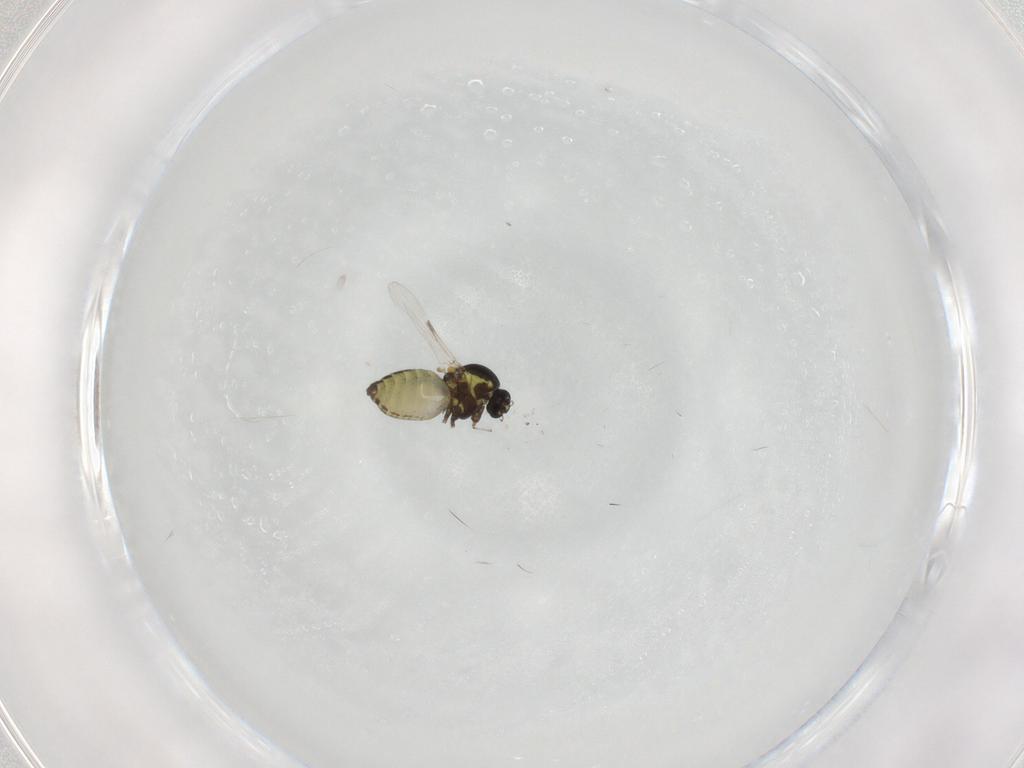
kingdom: Animalia
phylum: Arthropoda
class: Insecta
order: Diptera
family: Ceratopogonidae
